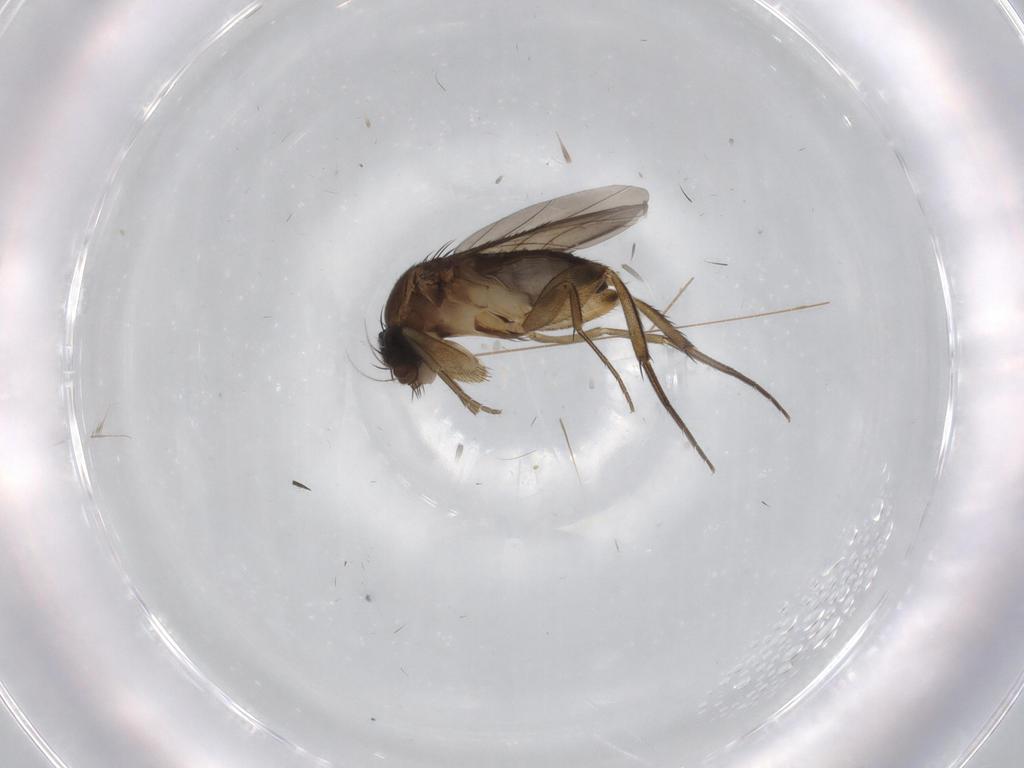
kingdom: Animalia
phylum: Arthropoda
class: Insecta
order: Diptera
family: Phoridae
